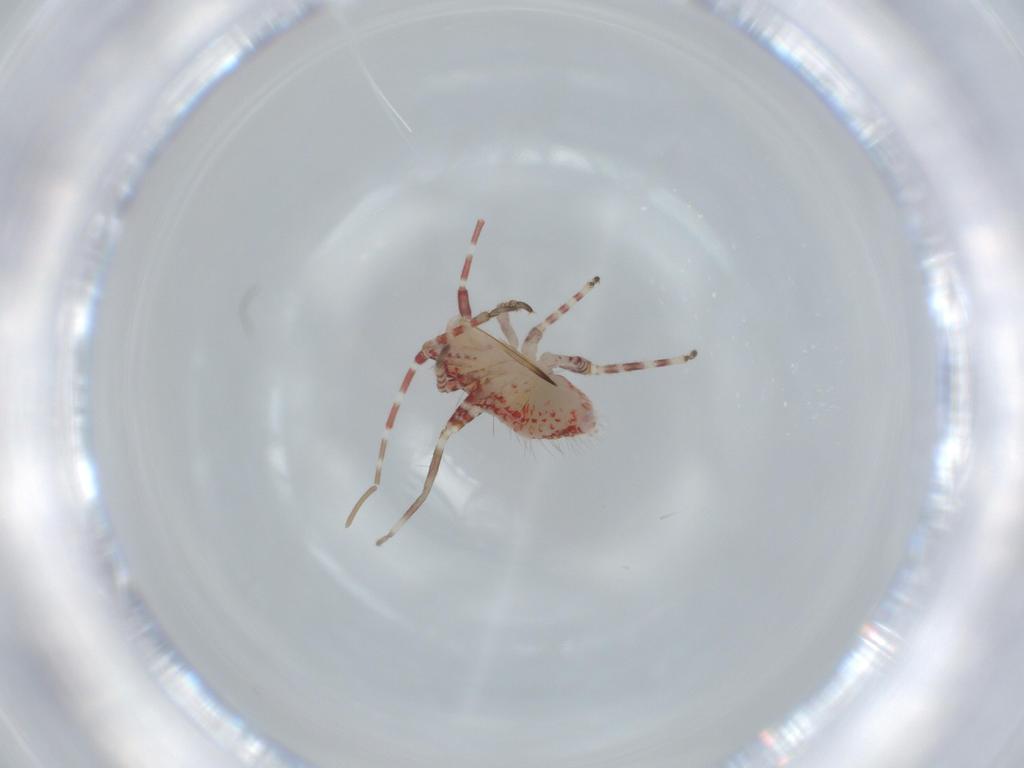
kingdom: Animalia
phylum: Arthropoda
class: Insecta
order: Hemiptera
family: Miridae
